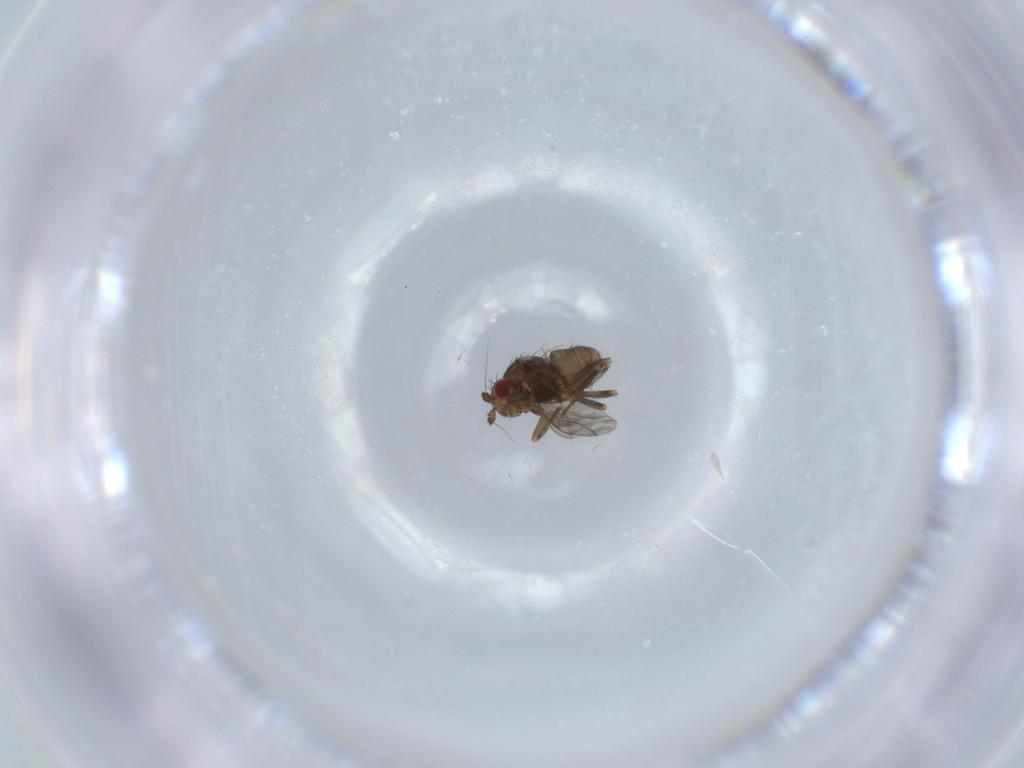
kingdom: Animalia
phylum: Arthropoda
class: Insecta
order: Diptera
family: Sphaeroceridae
